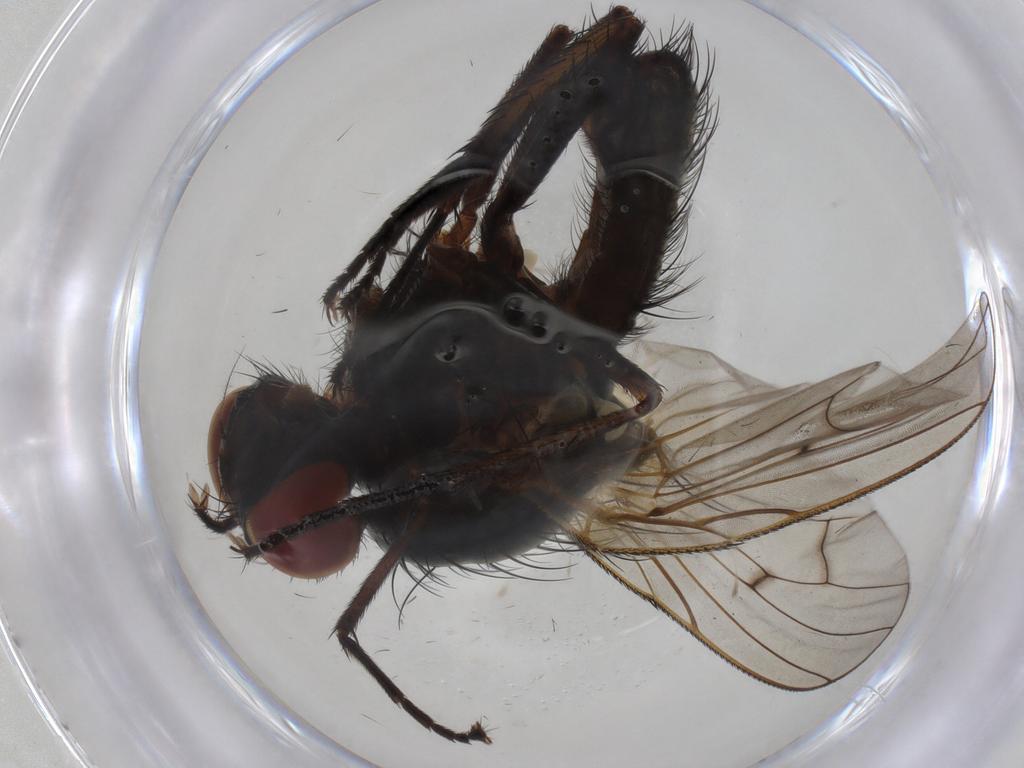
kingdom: Animalia
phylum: Arthropoda
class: Insecta
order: Diptera
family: Anthomyiidae
